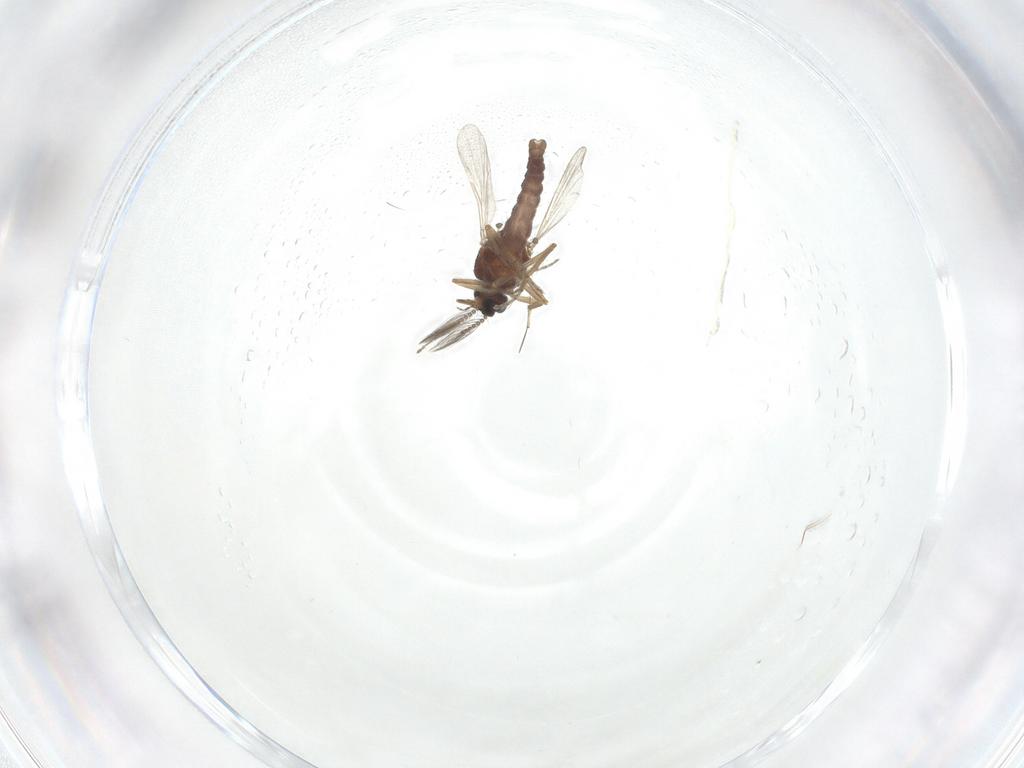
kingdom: Animalia
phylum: Arthropoda
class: Insecta
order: Diptera
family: Ceratopogonidae
